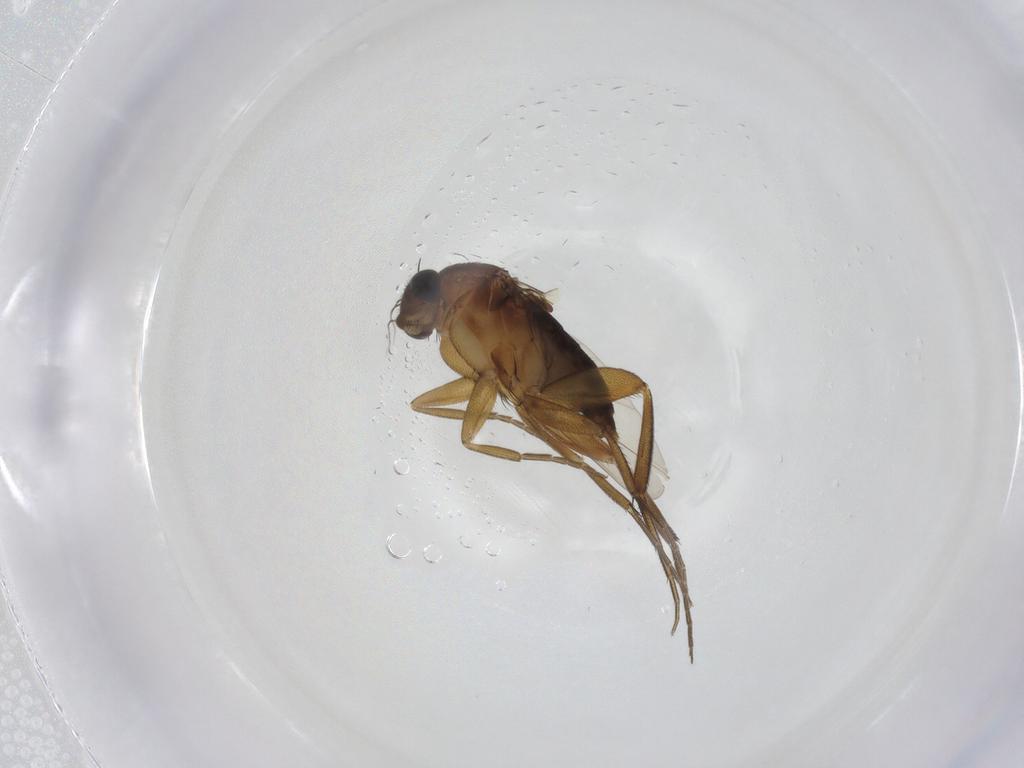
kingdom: Animalia
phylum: Arthropoda
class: Insecta
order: Diptera
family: Phoridae
